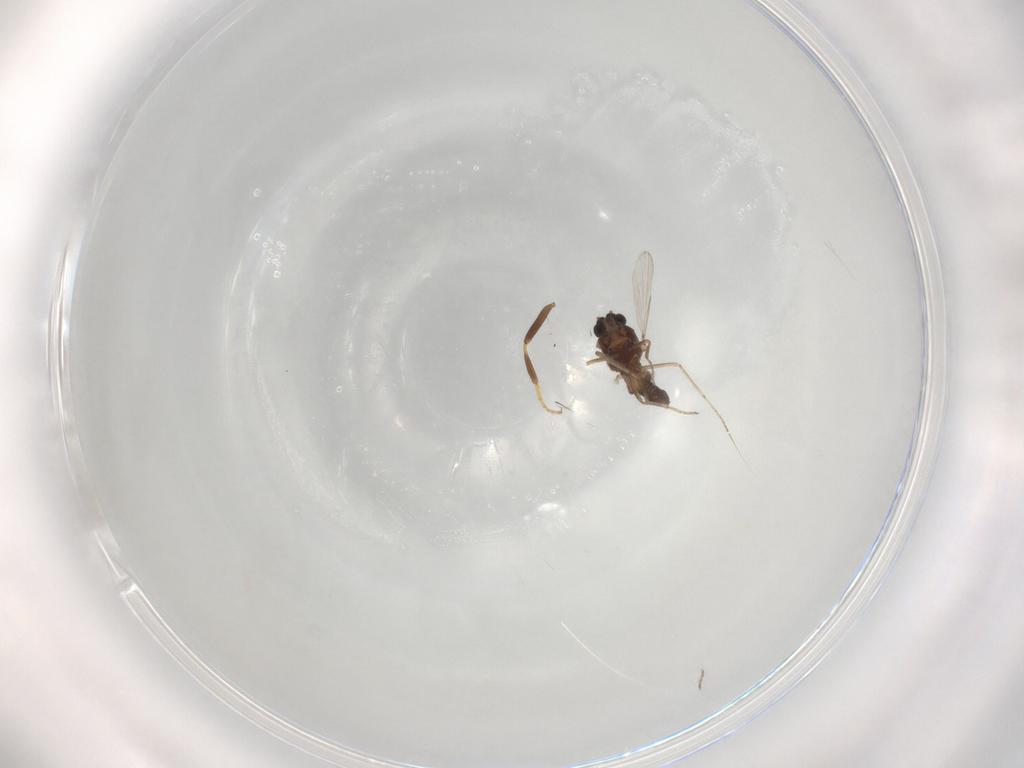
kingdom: Animalia
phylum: Arthropoda
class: Insecta
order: Diptera
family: Ceratopogonidae
